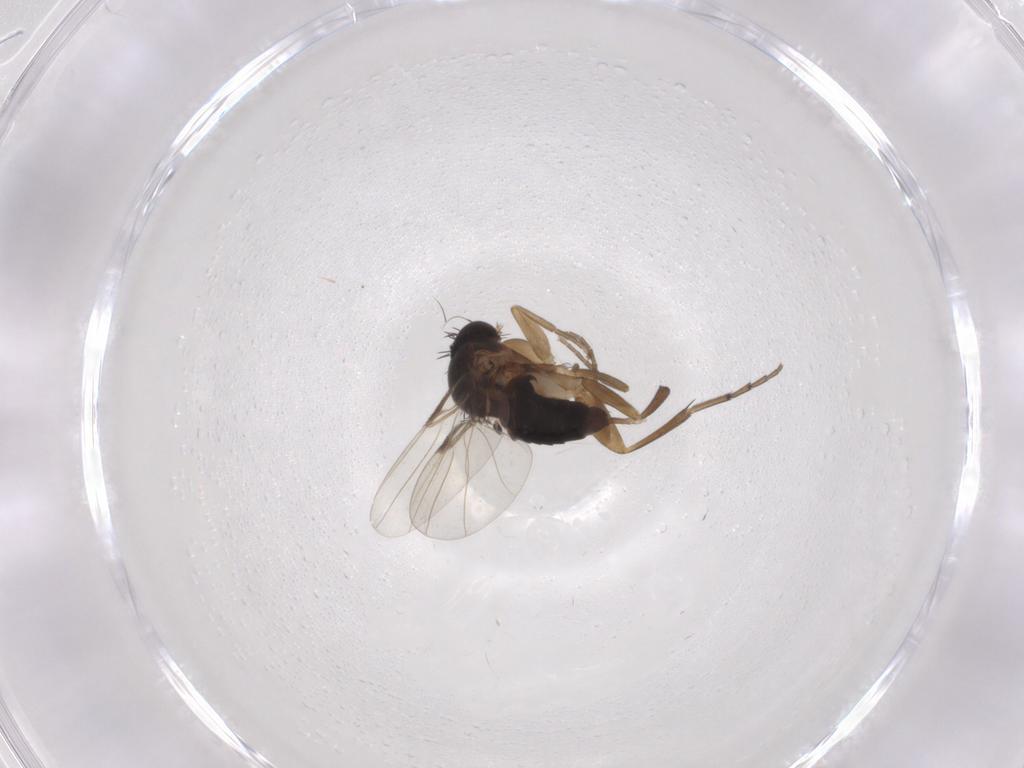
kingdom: Animalia
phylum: Arthropoda
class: Insecta
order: Diptera
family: Phoridae
